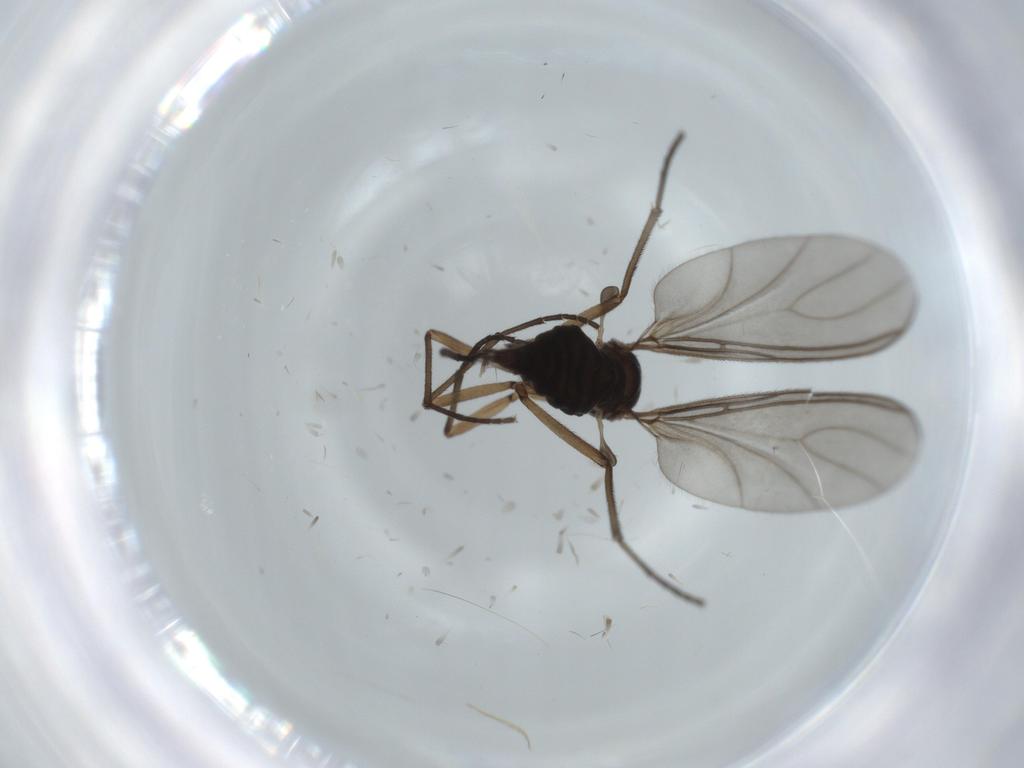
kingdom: Animalia
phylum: Arthropoda
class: Insecta
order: Diptera
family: Sciaridae
